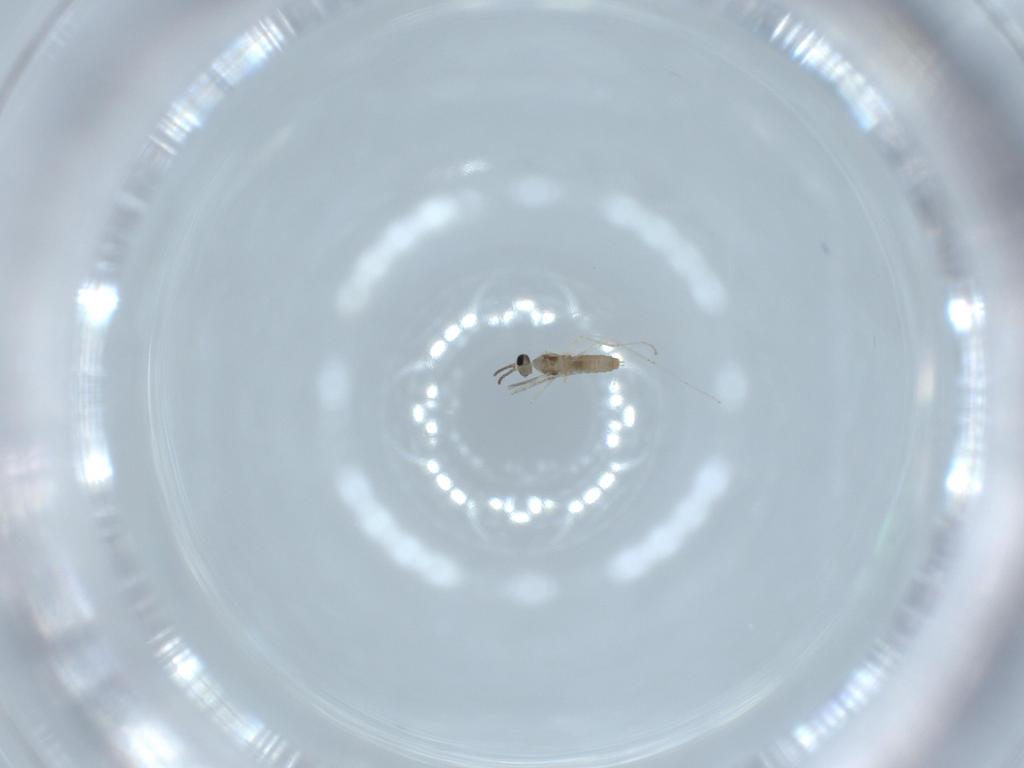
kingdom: Animalia
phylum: Arthropoda
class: Insecta
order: Diptera
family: Cecidomyiidae
